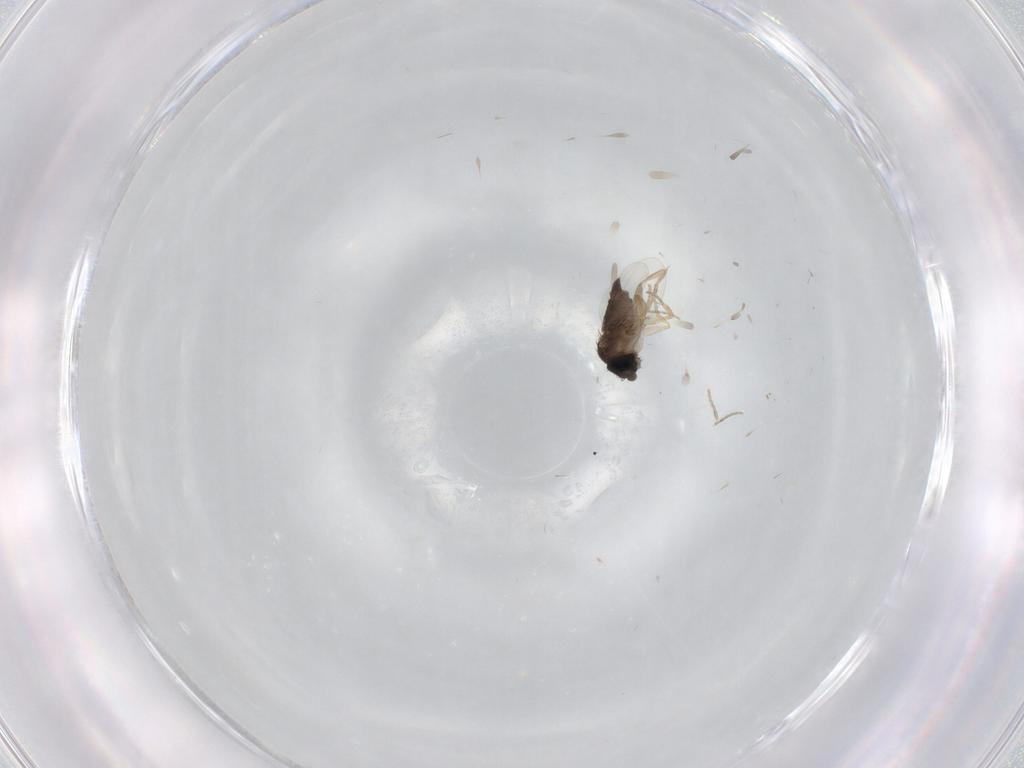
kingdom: Animalia
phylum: Arthropoda
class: Insecta
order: Diptera
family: Phoridae
